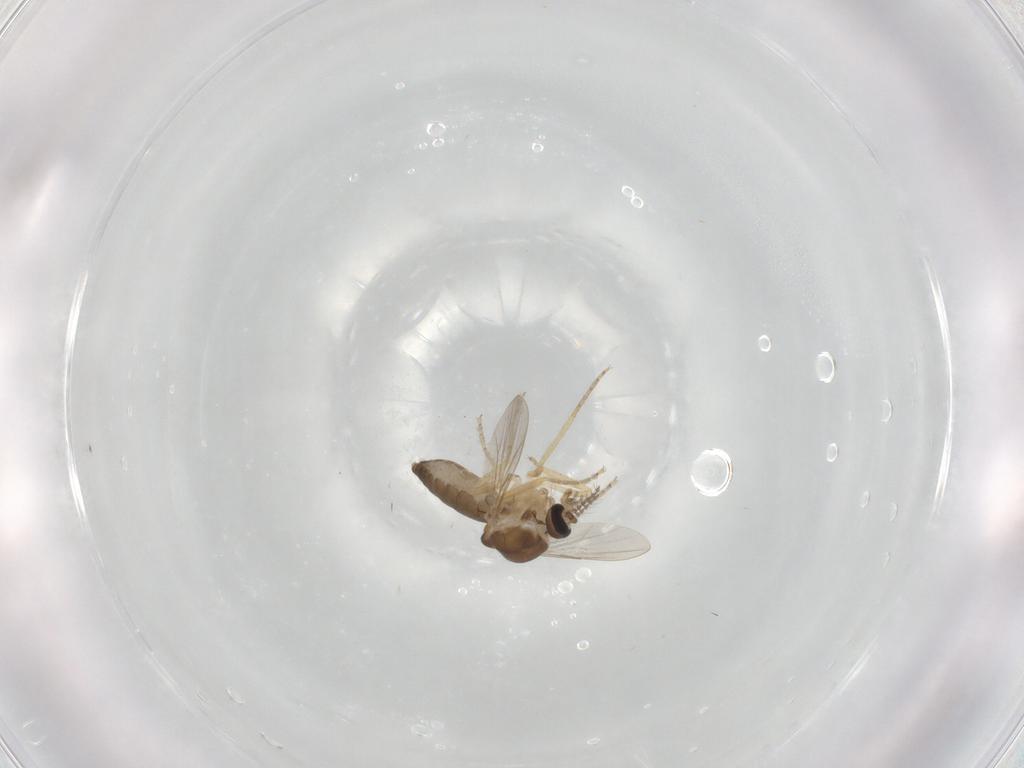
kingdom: Animalia
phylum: Arthropoda
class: Insecta
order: Diptera
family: Ceratopogonidae
